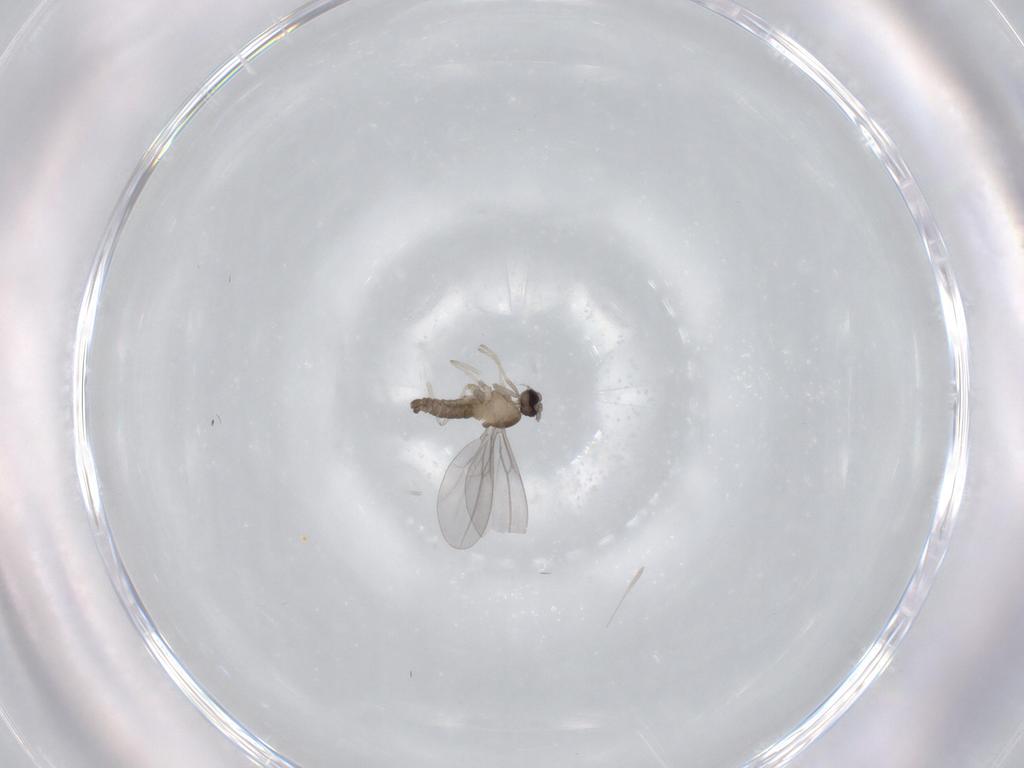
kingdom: Animalia
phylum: Arthropoda
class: Insecta
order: Diptera
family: Cecidomyiidae
